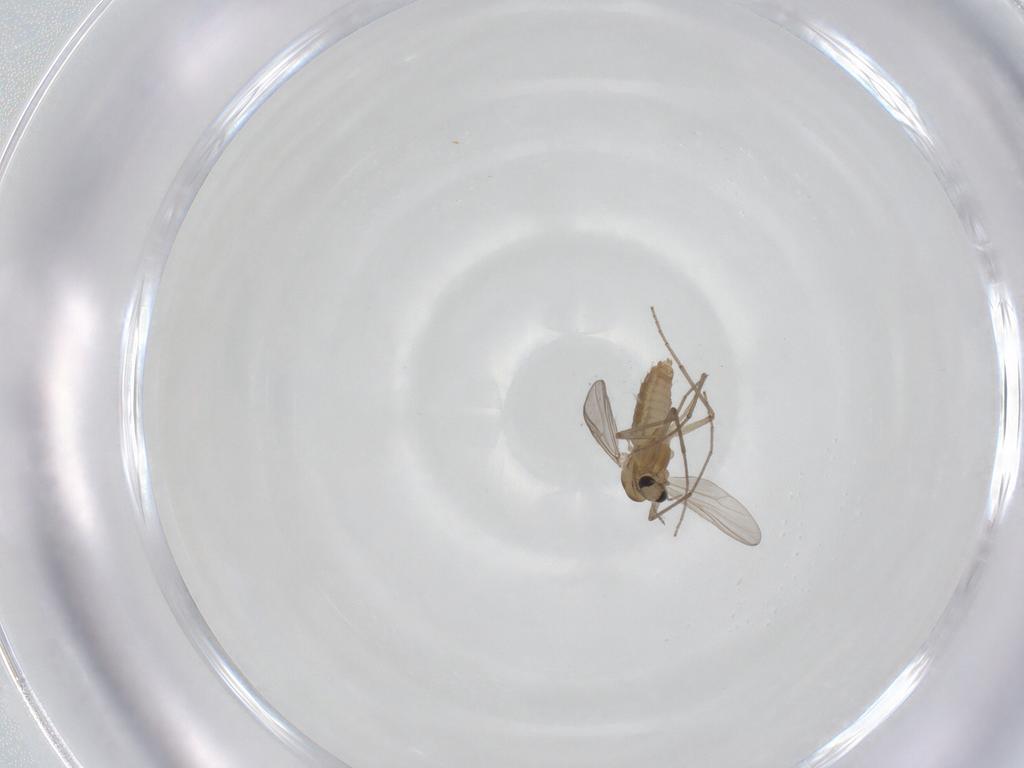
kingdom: Animalia
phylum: Arthropoda
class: Insecta
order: Diptera
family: Chironomidae
